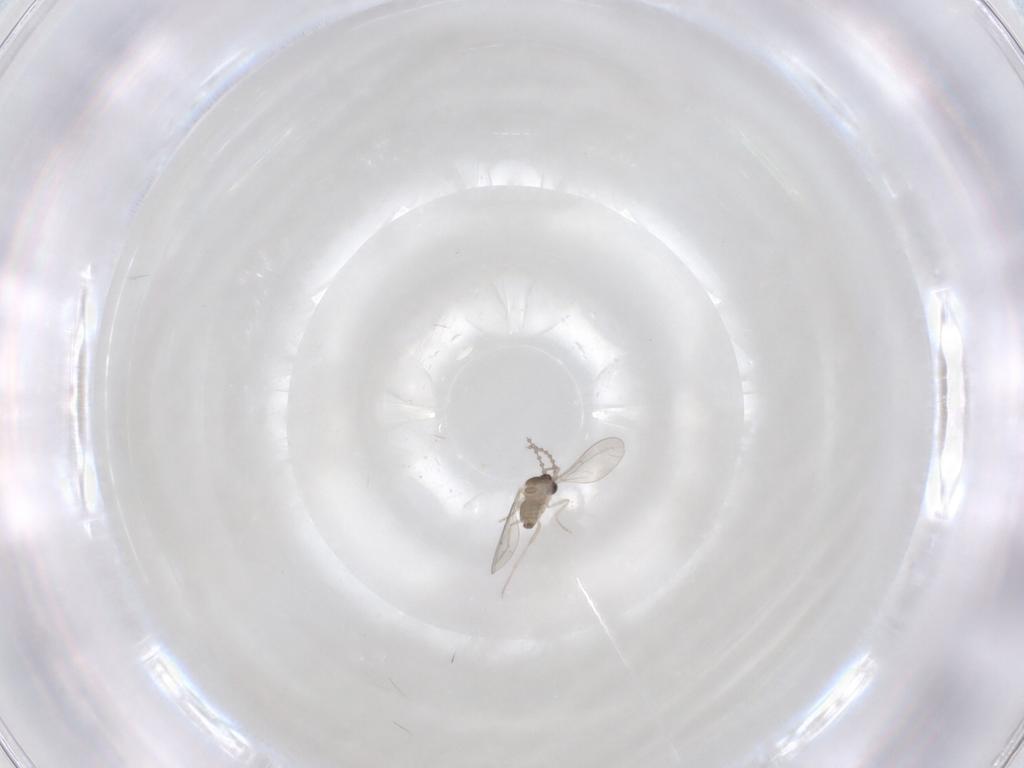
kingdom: Animalia
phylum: Arthropoda
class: Insecta
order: Diptera
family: Cecidomyiidae
